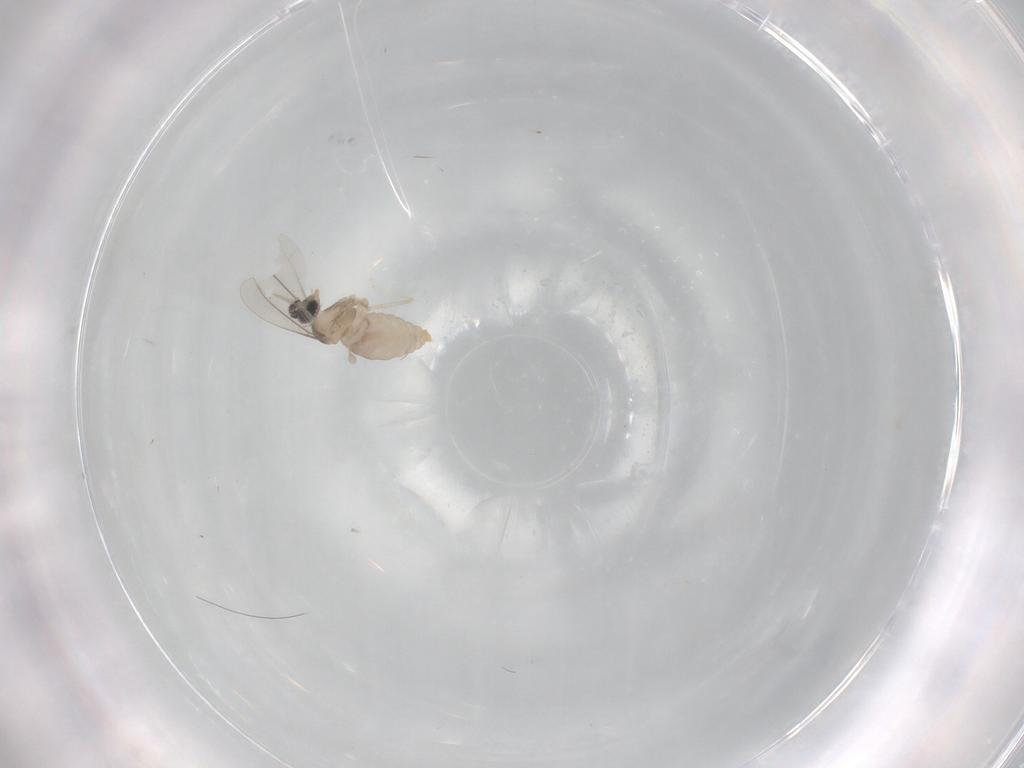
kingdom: Animalia
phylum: Arthropoda
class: Insecta
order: Diptera
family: Cecidomyiidae
